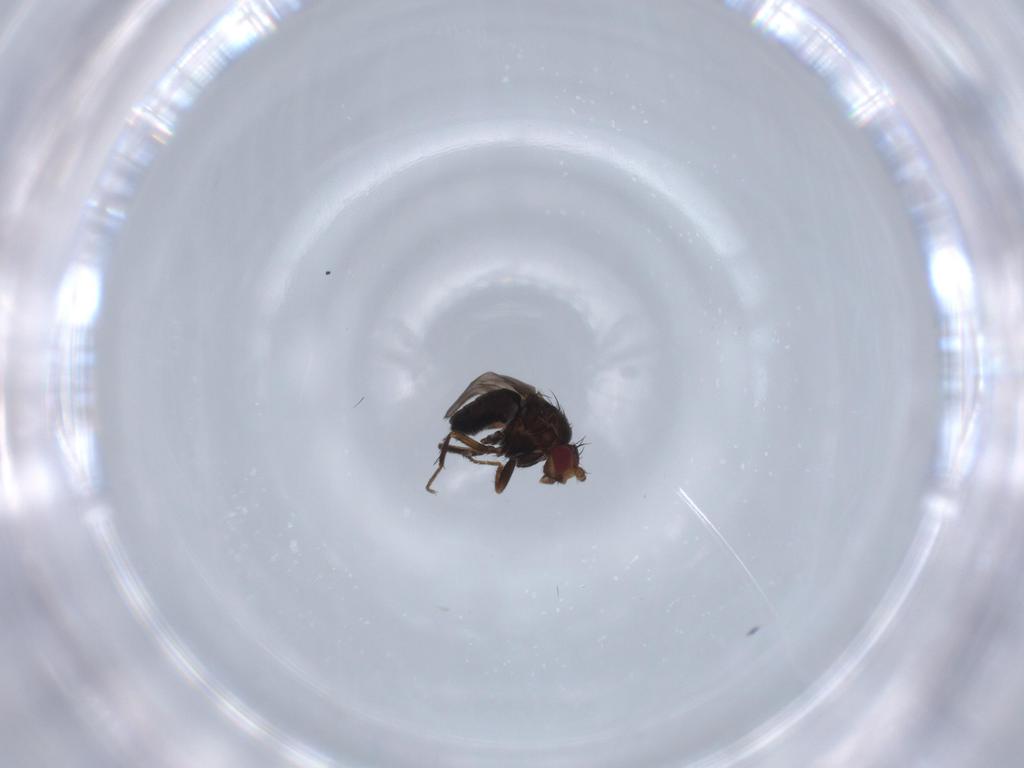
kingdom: Animalia
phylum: Arthropoda
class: Insecta
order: Diptera
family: Sphaeroceridae
